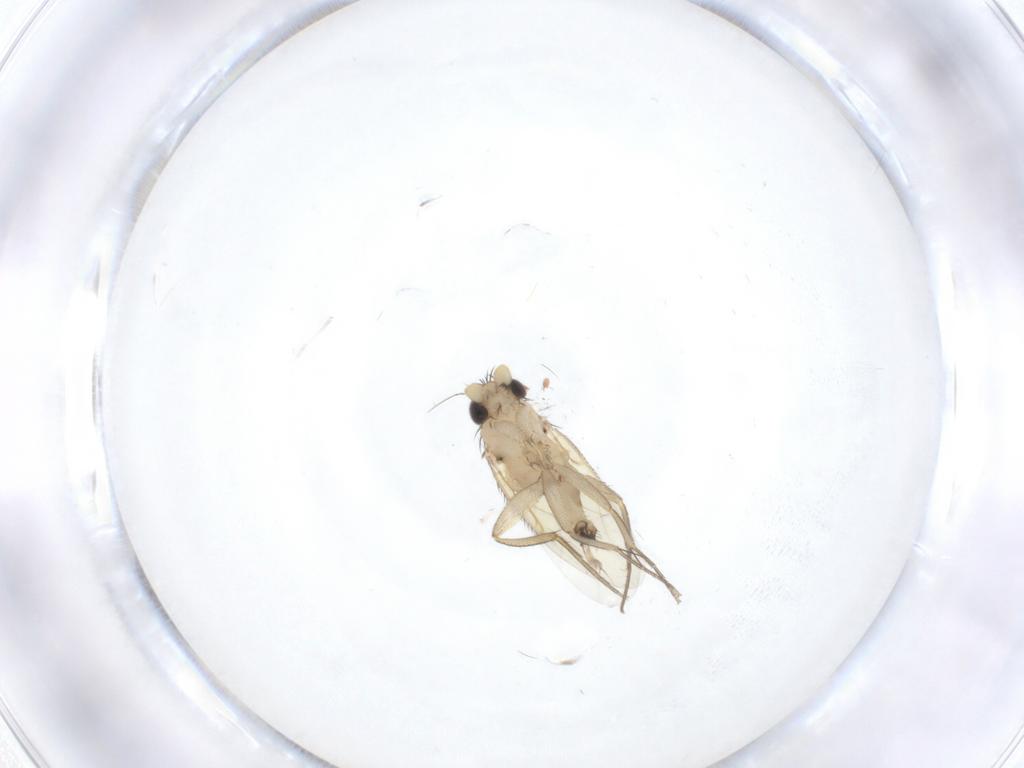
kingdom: Animalia
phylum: Arthropoda
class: Insecta
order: Diptera
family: Phoridae
